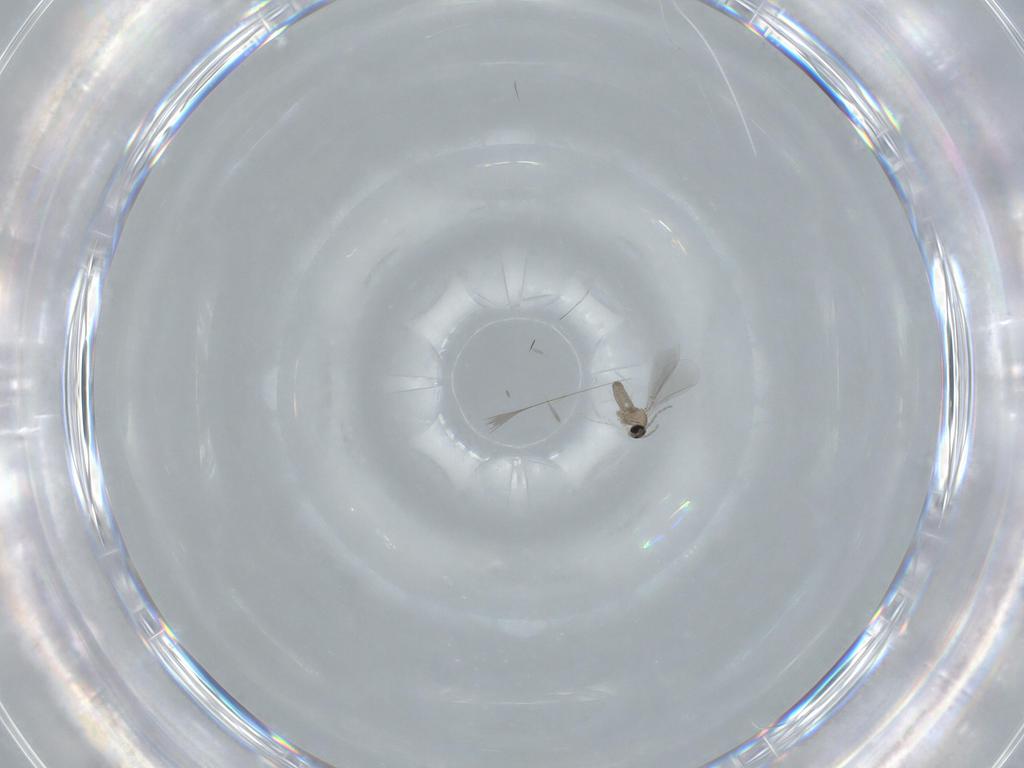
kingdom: Animalia
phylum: Arthropoda
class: Insecta
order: Diptera
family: Ceratopogonidae
